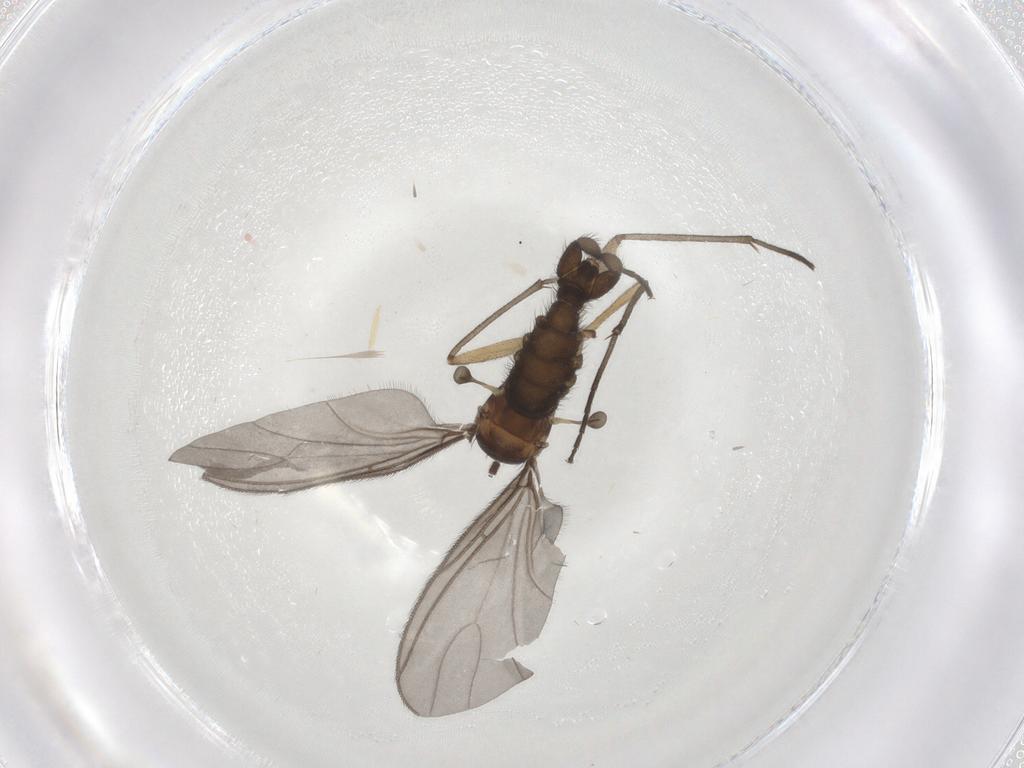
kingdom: Animalia
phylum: Arthropoda
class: Insecta
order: Diptera
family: Sciaridae
